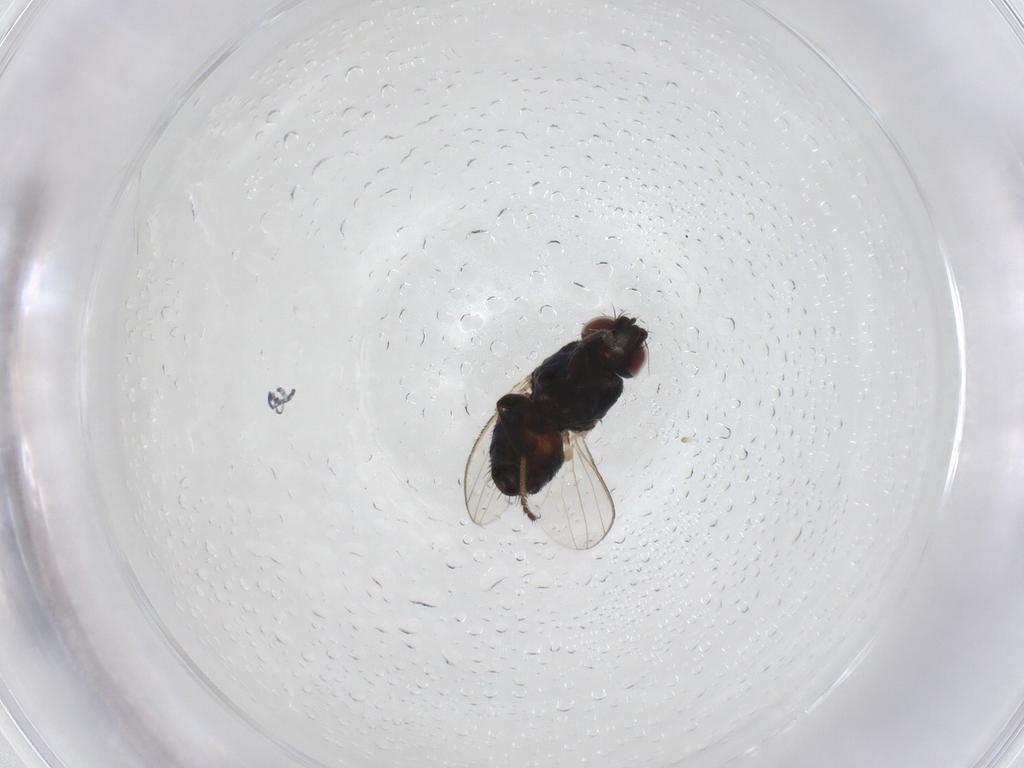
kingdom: Animalia
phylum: Arthropoda
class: Insecta
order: Diptera
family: Milichiidae
